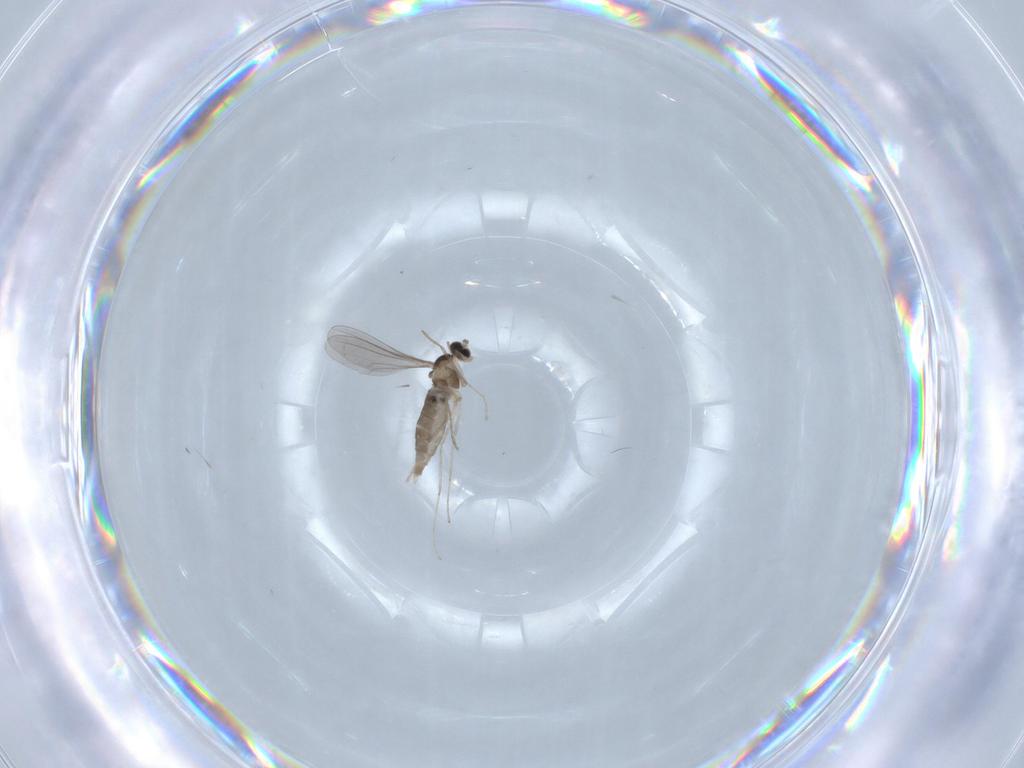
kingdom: Animalia
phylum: Arthropoda
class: Insecta
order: Diptera
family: Chironomidae
